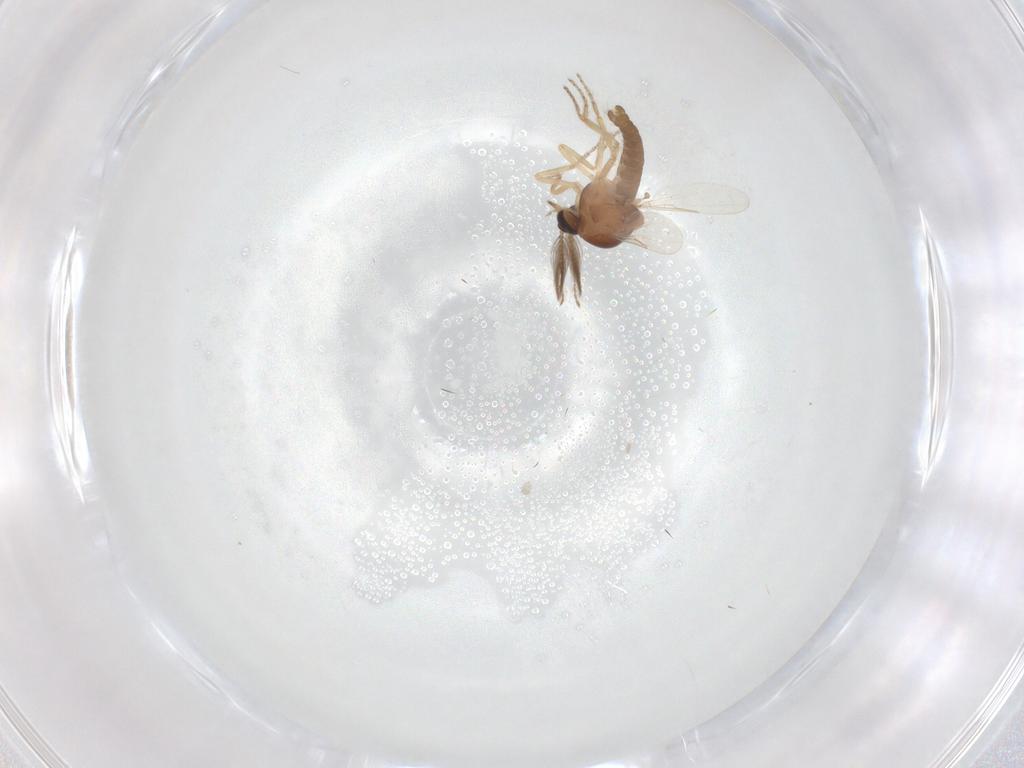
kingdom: Animalia
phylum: Arthropoda
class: Insecta
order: Diptera
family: Ceratopogonidae
